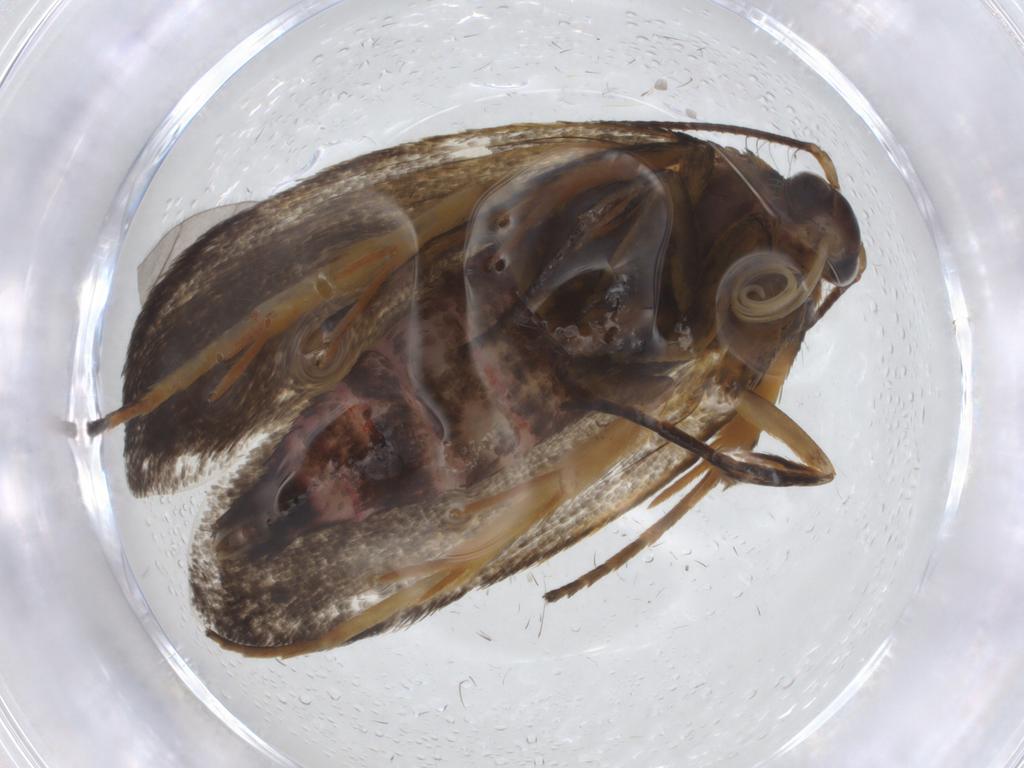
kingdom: Animalia
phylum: Arthropoda
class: Insecta
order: Lepidoptera
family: Oecophoridae
